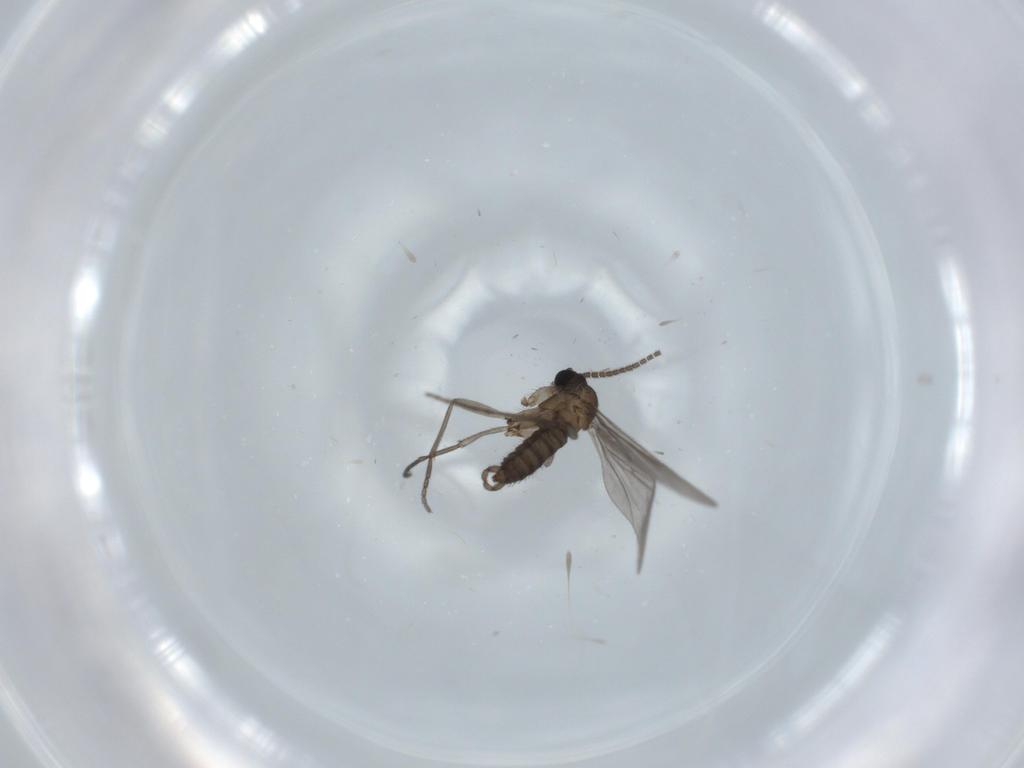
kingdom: Animalia
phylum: Arthropoda
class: Insecta
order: Diptera
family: Sciaridae
